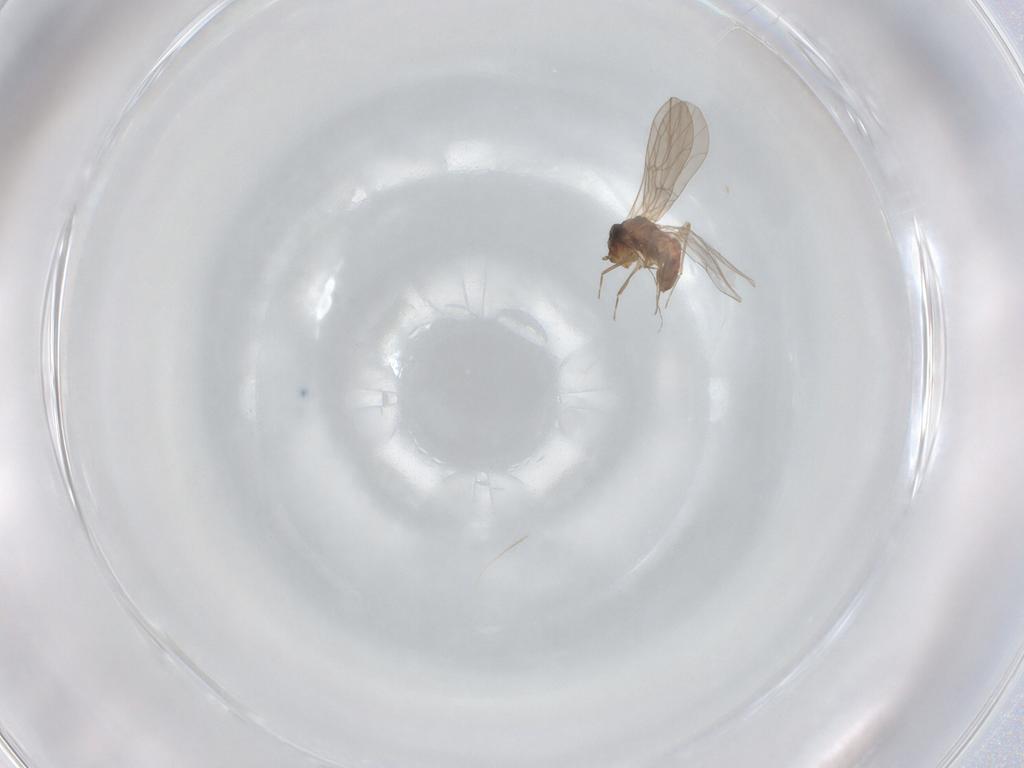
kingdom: Animalia
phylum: Arthropoda
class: Insecta
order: Psocodea
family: Lepidopsocidae
